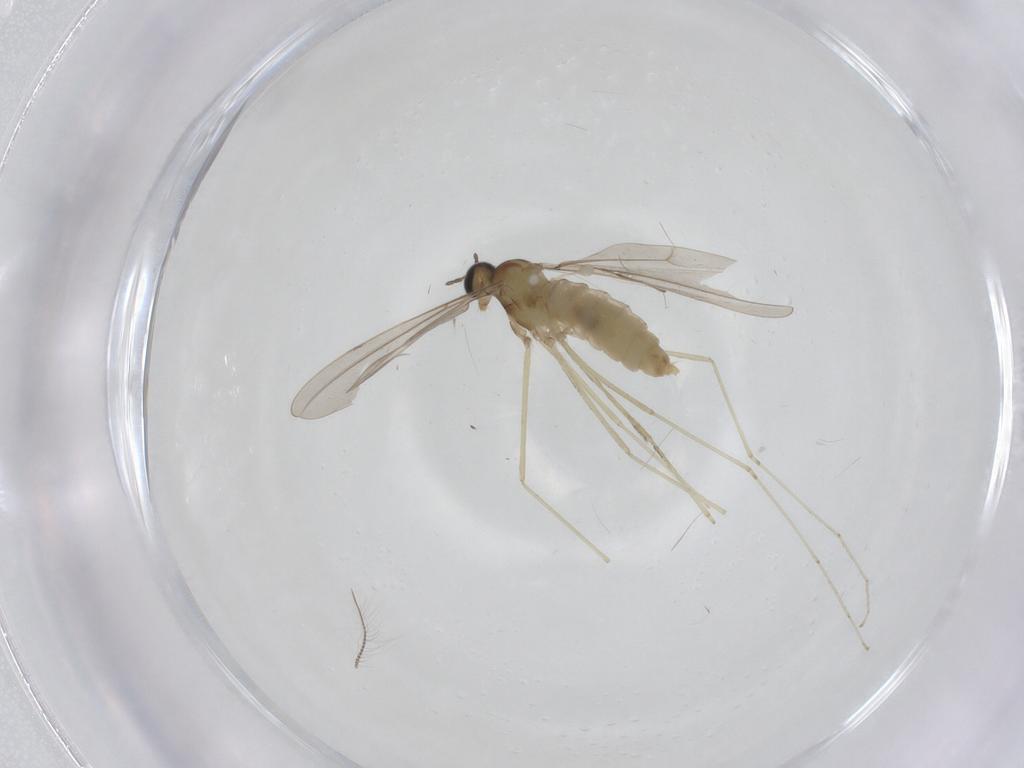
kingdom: Animalia
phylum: Arthropoda
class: Insecta
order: Diptera
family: Cecidomyiidae
